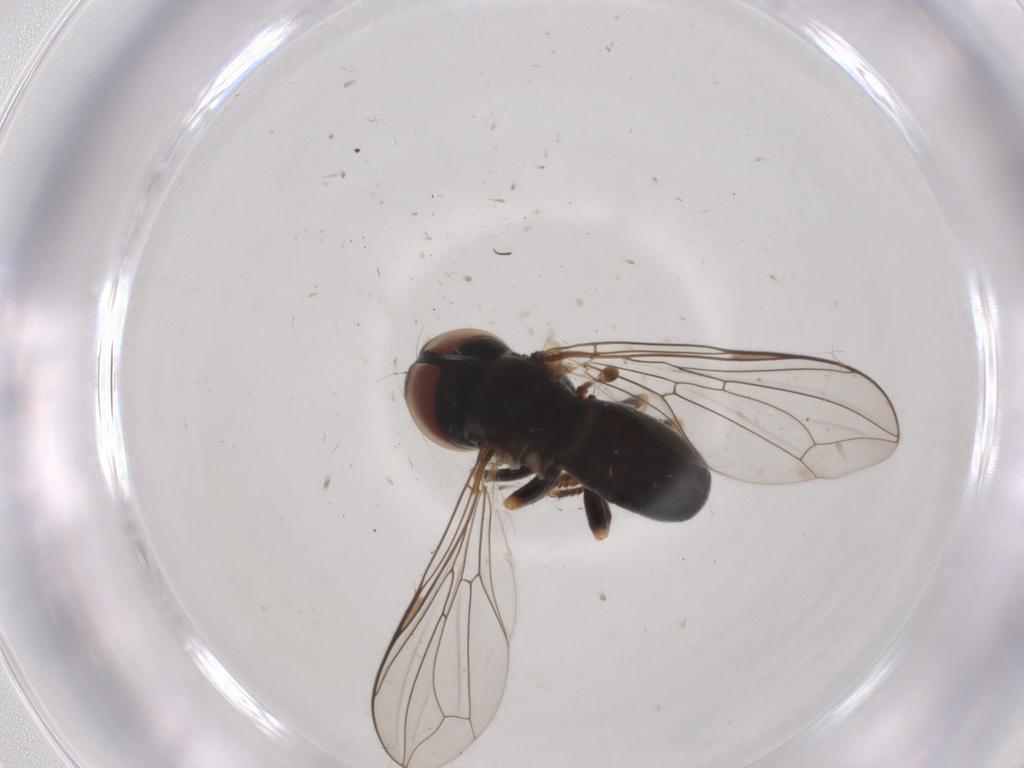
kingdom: Animalia
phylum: Arthropoda
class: Insecta
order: Diptera
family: Pipunculidae
